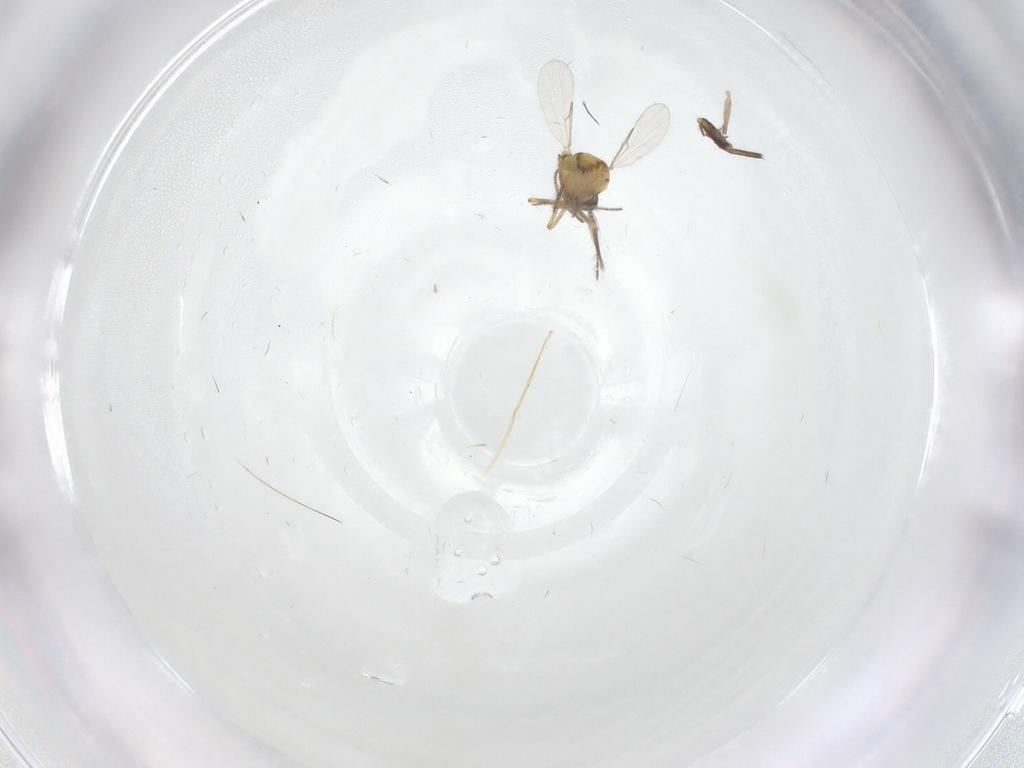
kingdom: Animalia
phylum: Arthropoda
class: Insecta
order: Diptera
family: Ceratopogonidae
